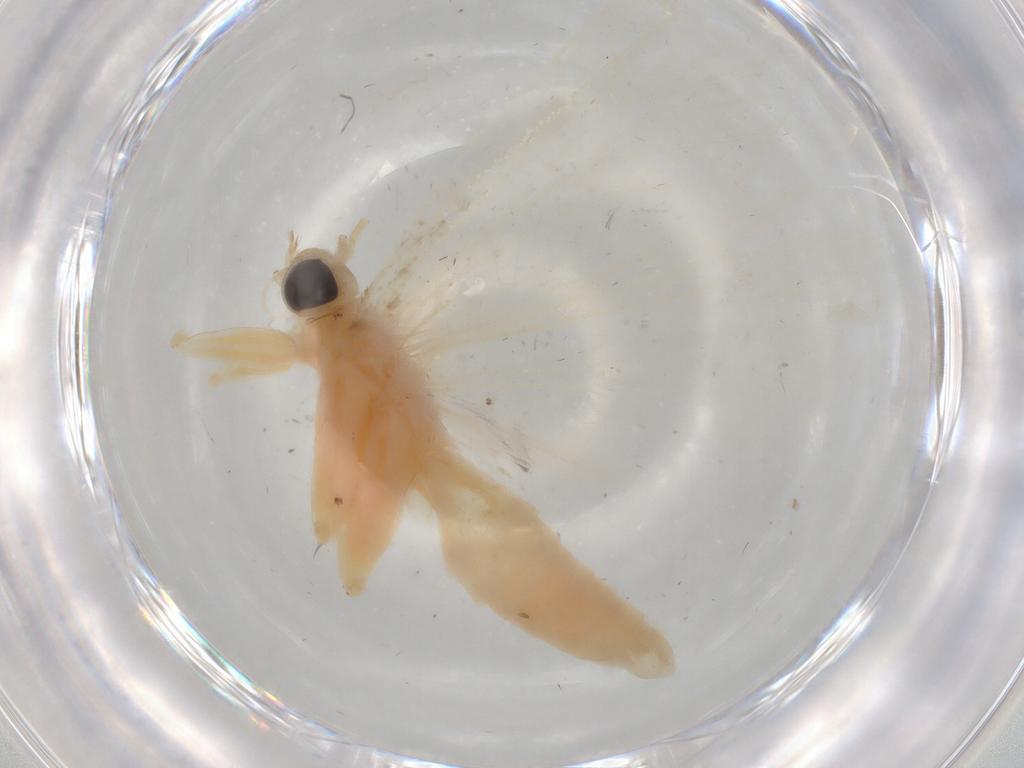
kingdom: Animalia
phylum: Arthropoda
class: Insecta
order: Lepidoptera
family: Crambidae
